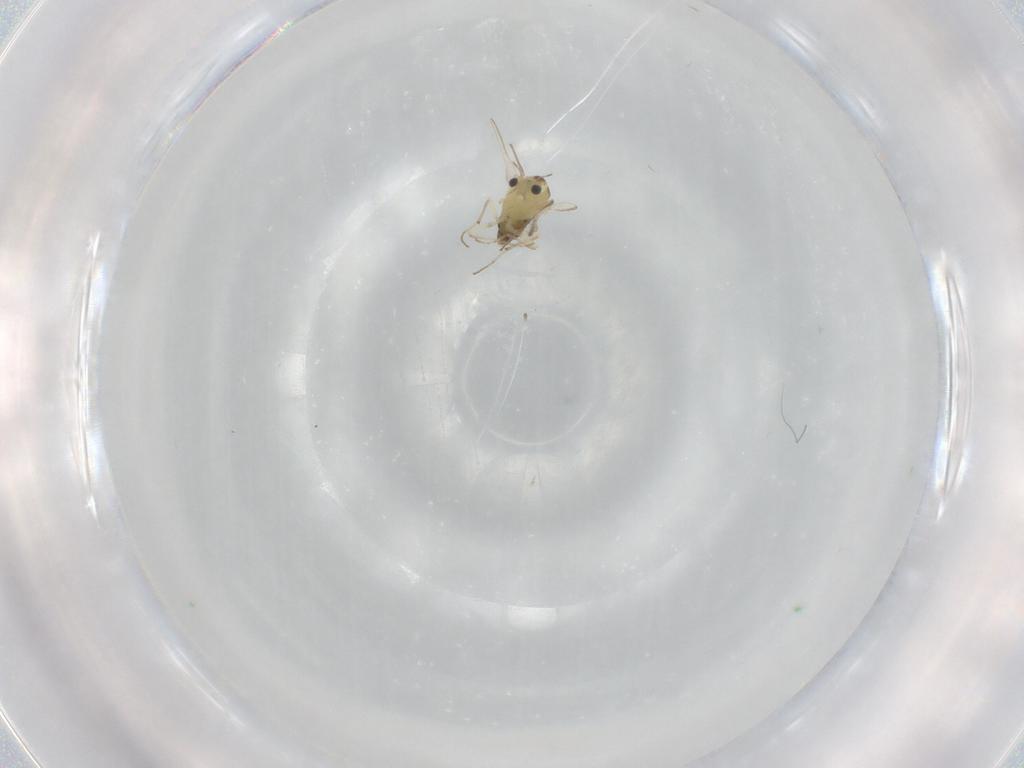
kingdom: Animalia
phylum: Arthropoda
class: Insecta
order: Diptera
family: Chironomidae
